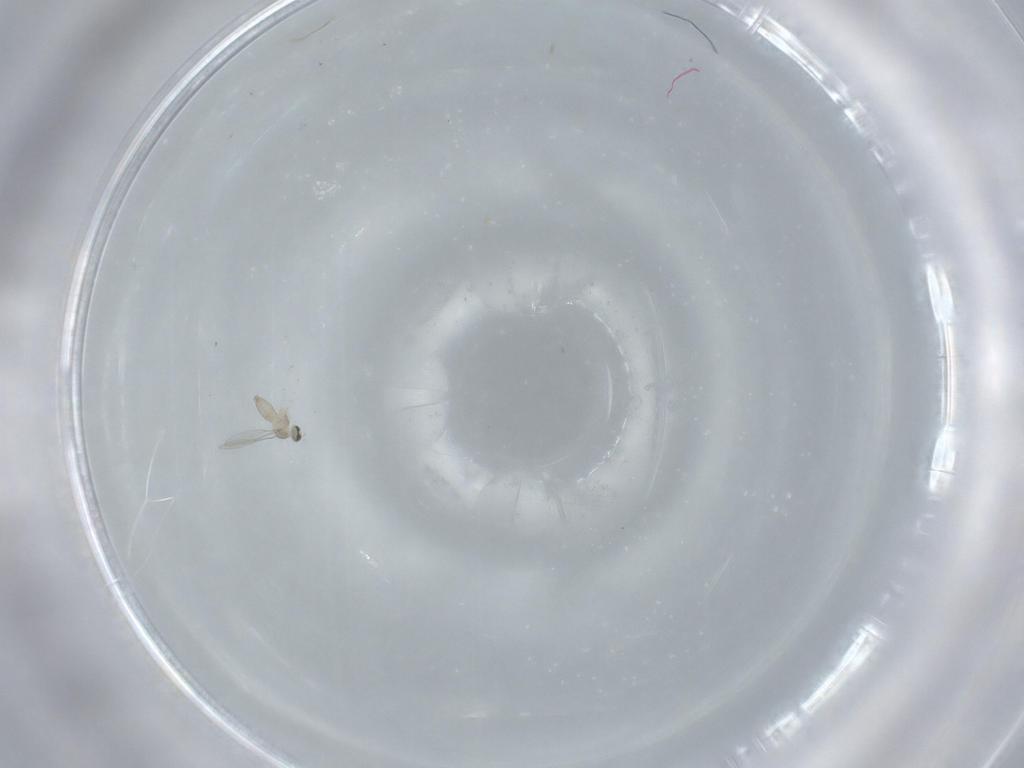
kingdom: Animalia
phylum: Arthropoda
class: Insecta
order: Diptera
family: Cecidomyiidae
